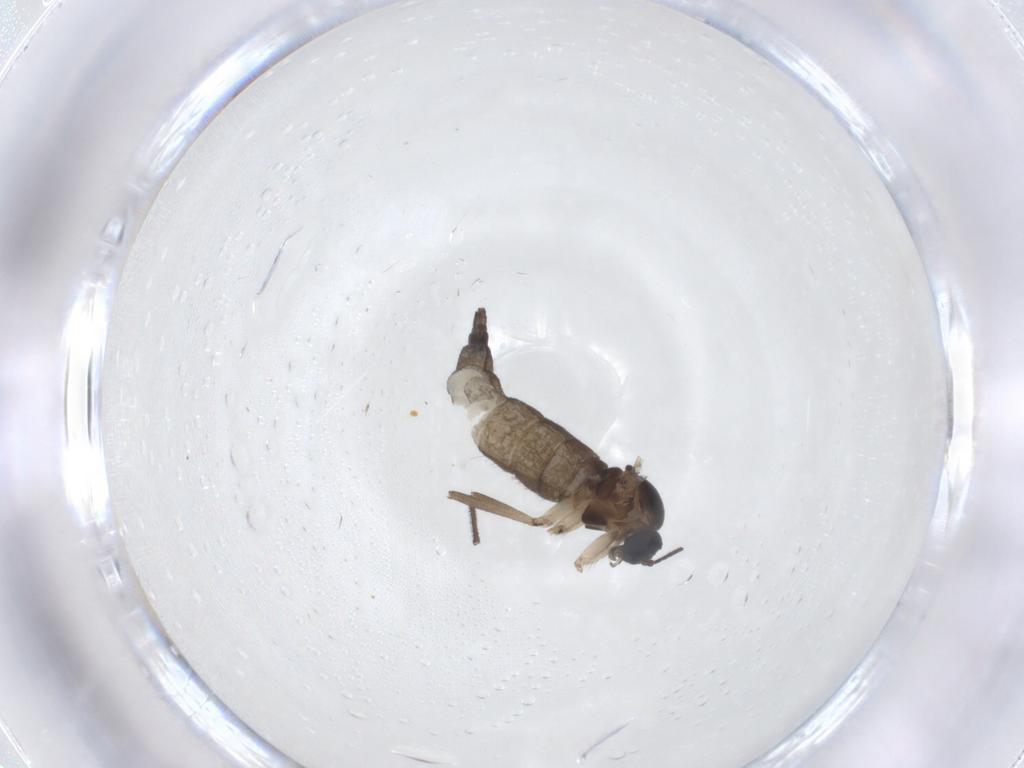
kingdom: Animalia
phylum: Arthropoda
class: Insecta
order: Diptera
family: Sciaridae
